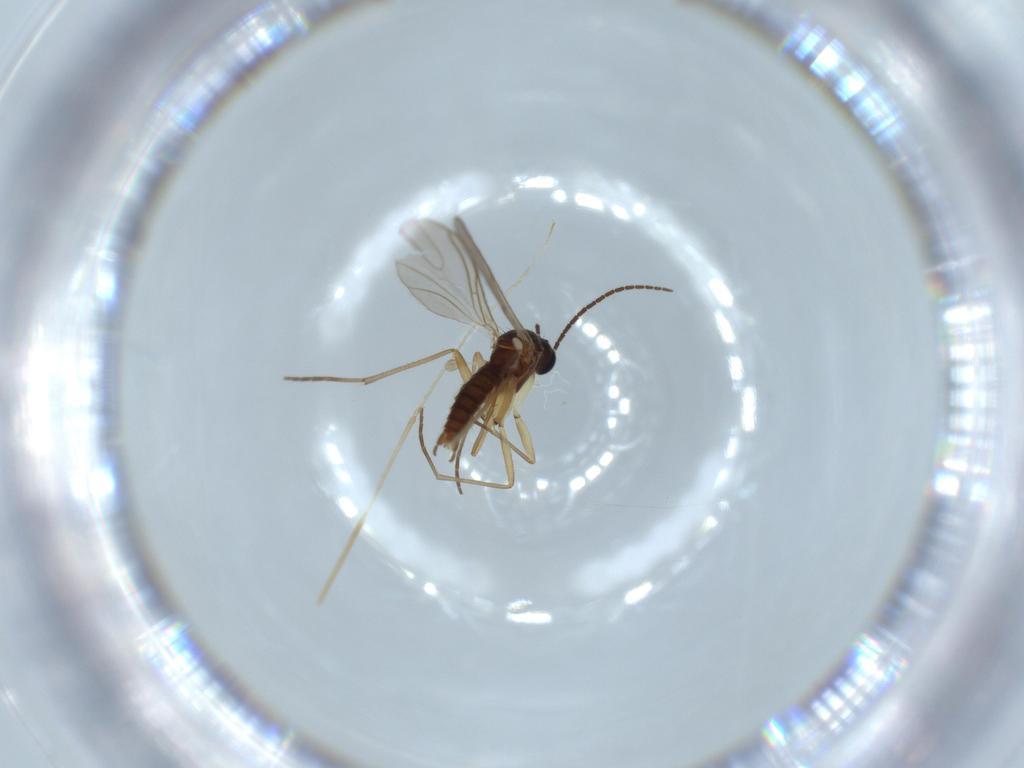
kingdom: Animalia
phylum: Arthropoda
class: Insecta
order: Diptera
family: Sciaridae
